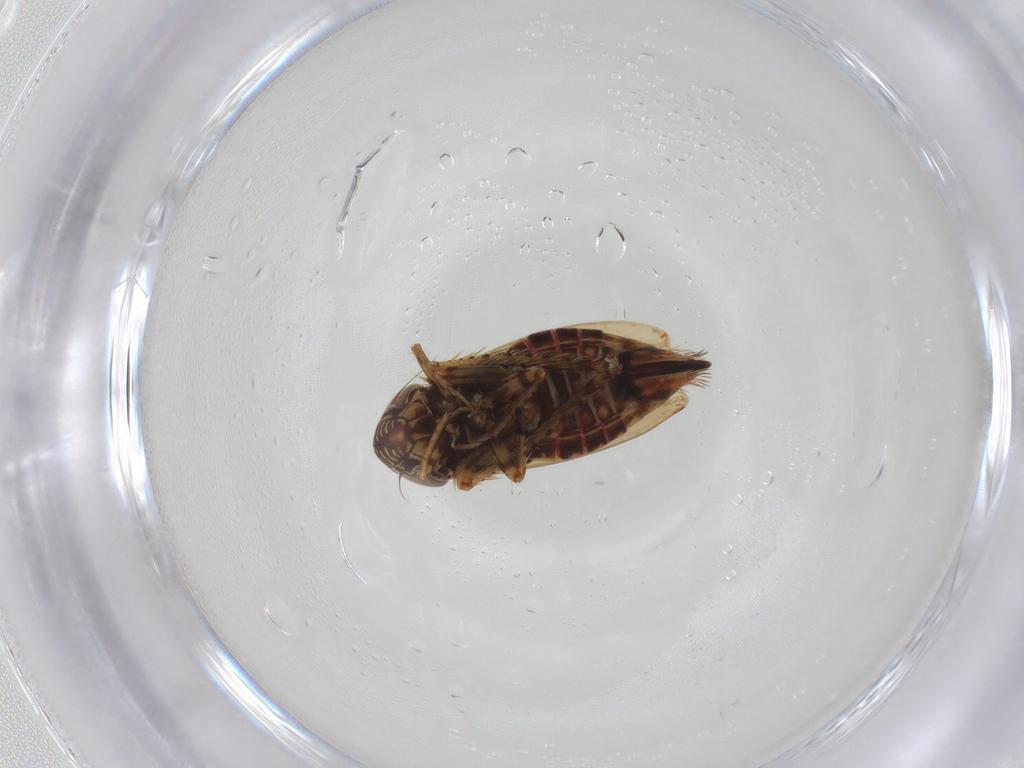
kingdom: Animalia
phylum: Arthropoda
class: Insecta
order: Hemiptera
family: Cicadellidae
